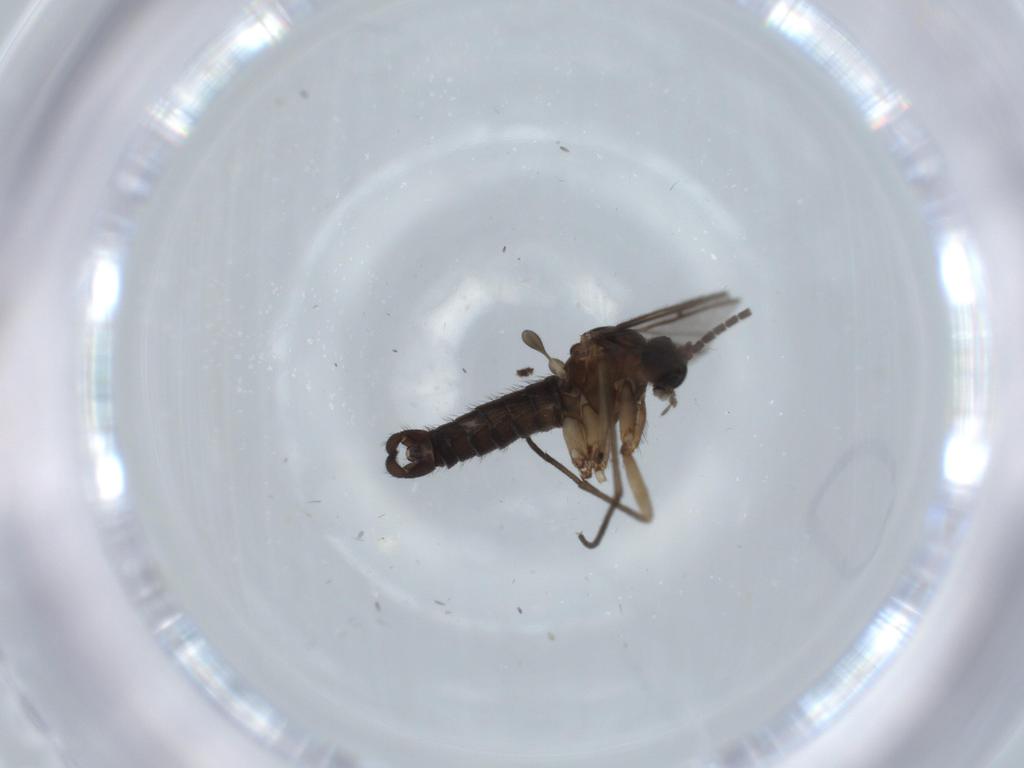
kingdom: Animalia
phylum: Arthropoda
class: Insecta
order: Diptera
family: Sciaridae
